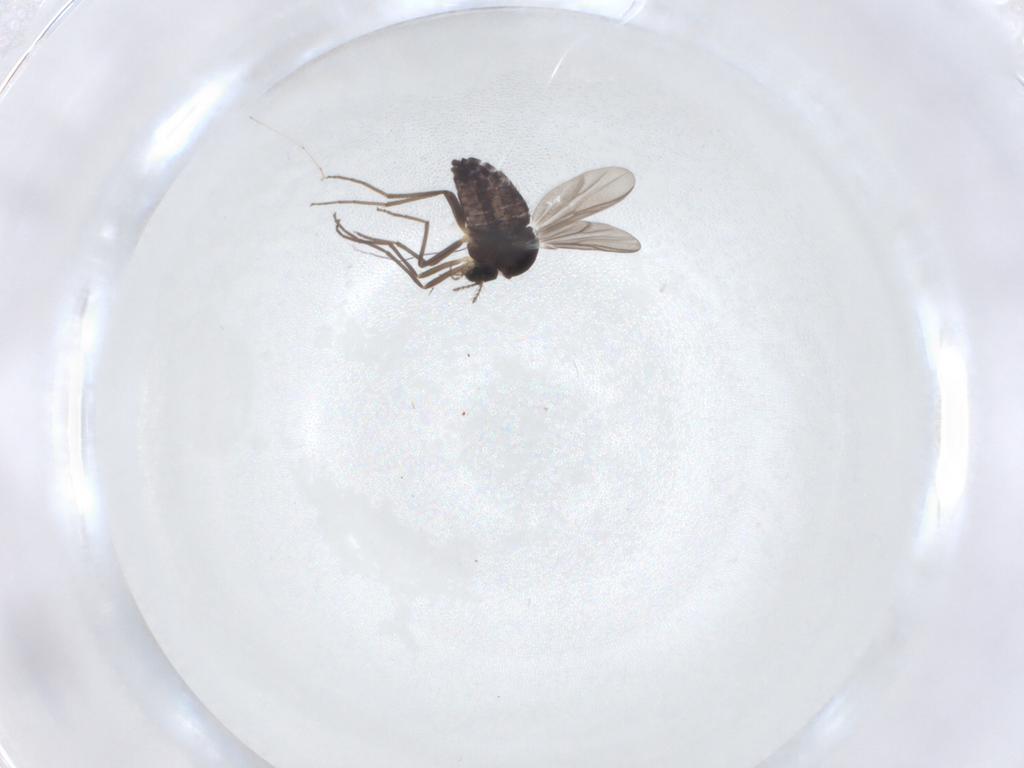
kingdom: Animalia
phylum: Arthropoda
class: Insecta
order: Diptera
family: Chironomidae
